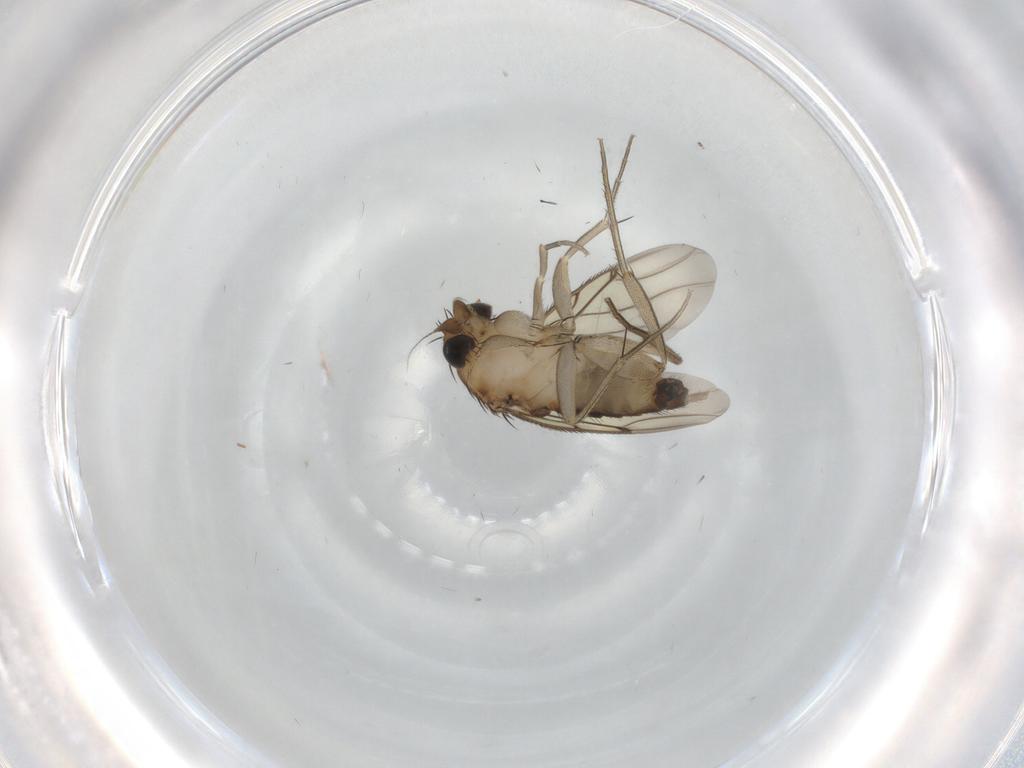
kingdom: Animalia
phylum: Arthropoda
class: Insecta
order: Diptera
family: Phoridae
